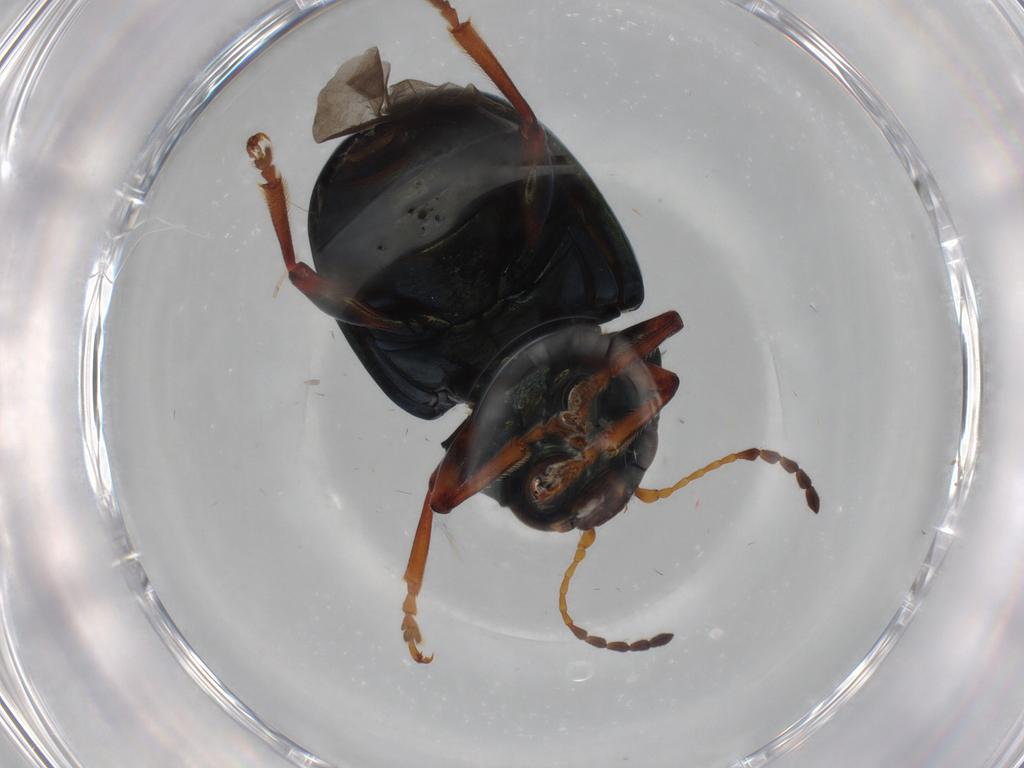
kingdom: Animalia
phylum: Arthropoda
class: Insecta
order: Coleoptera
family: Chrysomelidae
